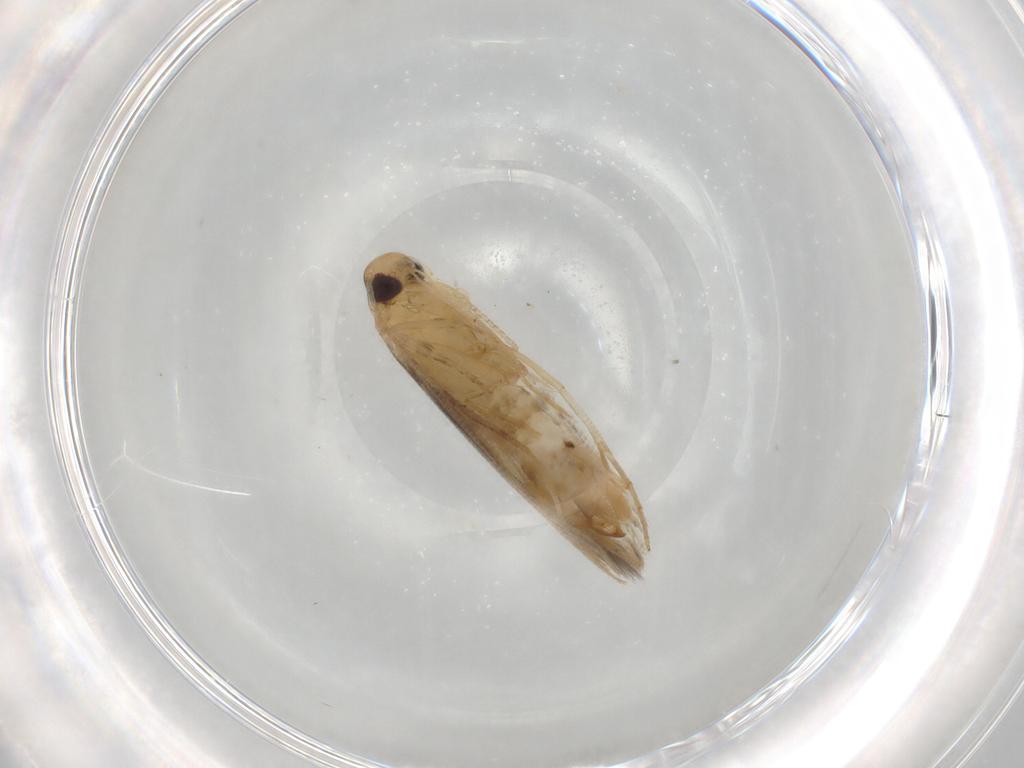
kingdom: Animalia
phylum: Arthropoda
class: Insecta
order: Lepidoptera
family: Cosmopterigidae
